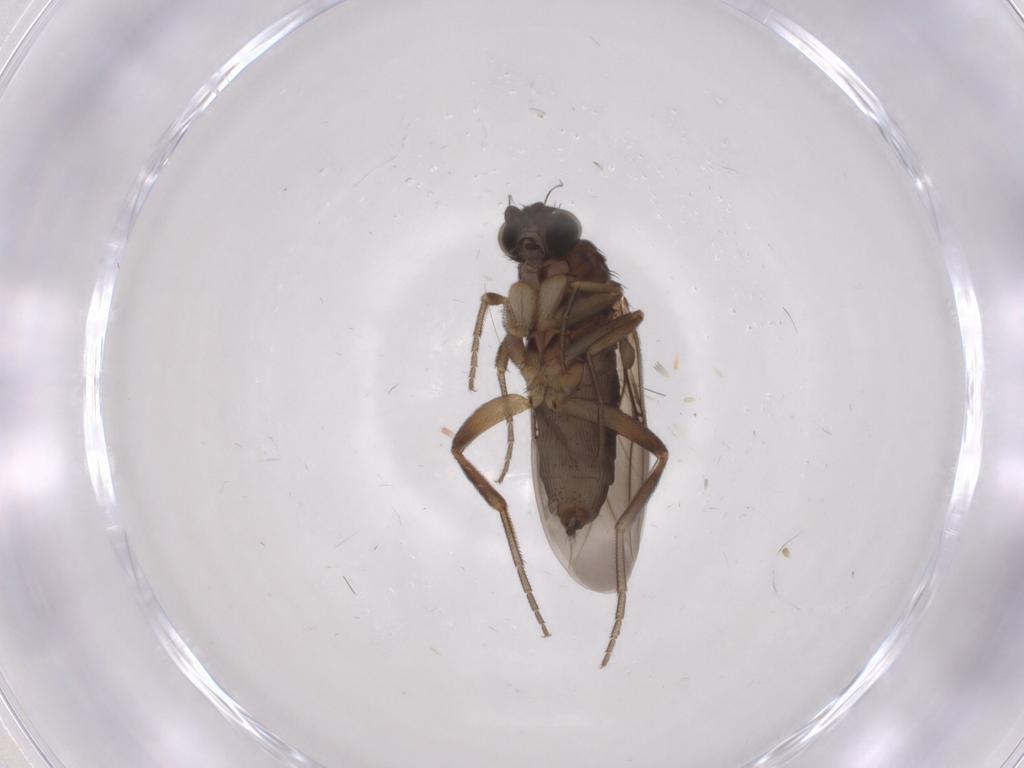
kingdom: Animalia
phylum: Arthropoda
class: Insecta
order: Diptera
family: Phoridae
